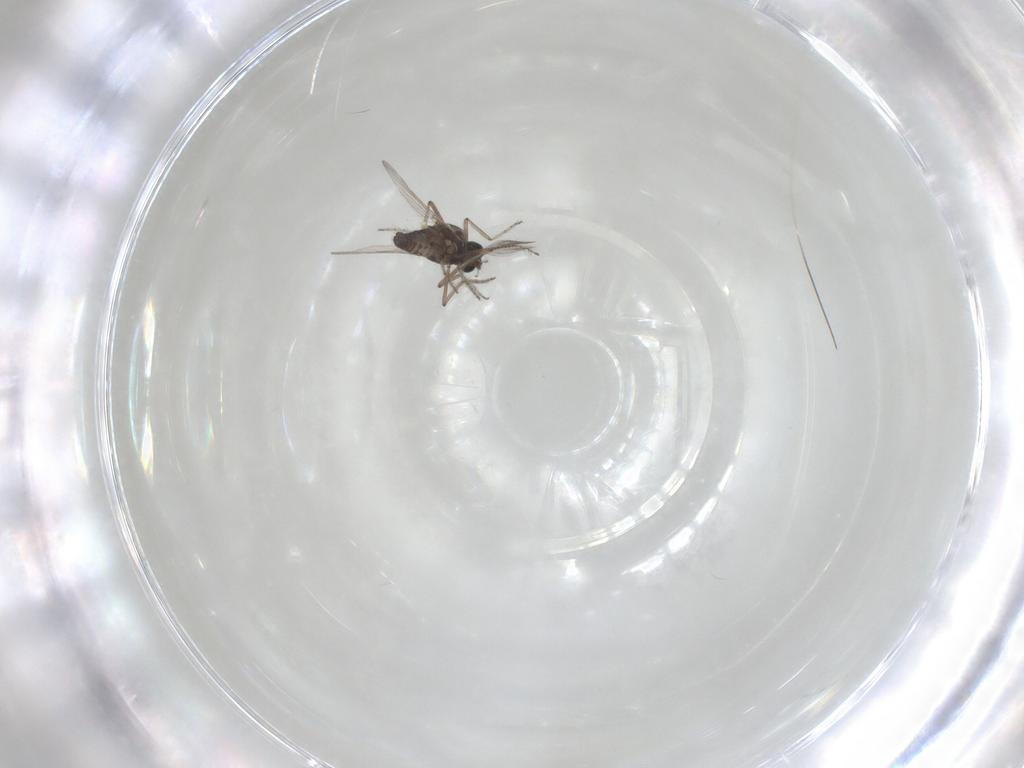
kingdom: Animalia
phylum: Arthropoda
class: Insecta
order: Diptera
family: Ceratopogonidae
